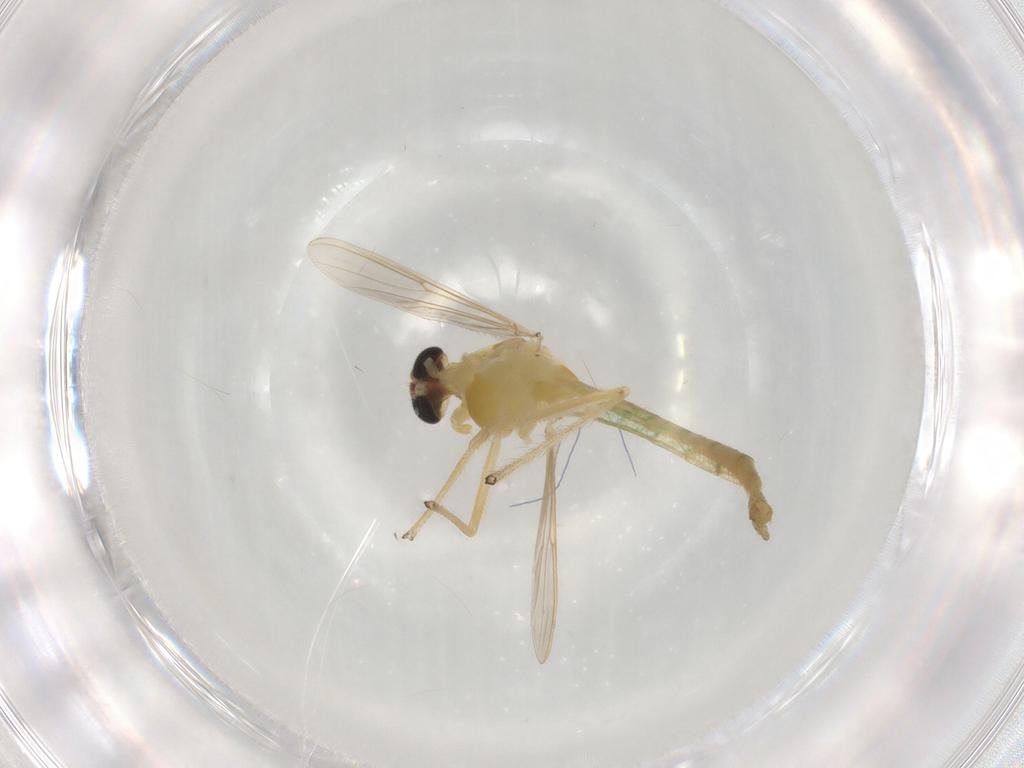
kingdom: Animalia
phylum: Arthropoda
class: Insecta
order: Diptera
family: Chironomidae
